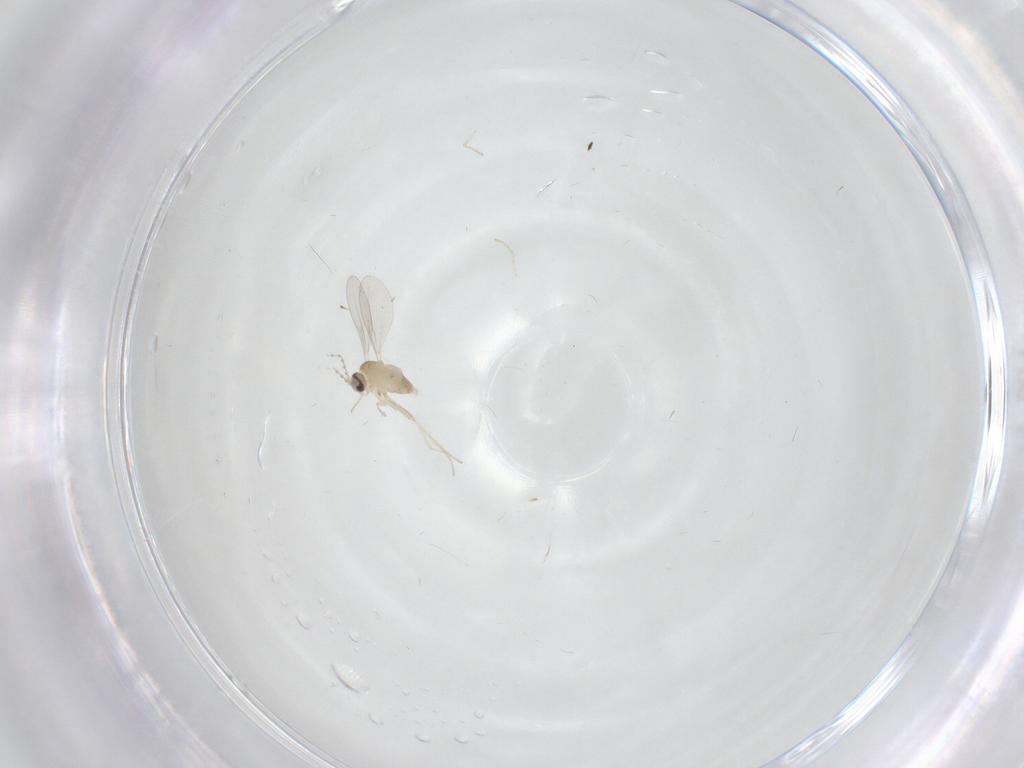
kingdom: Animalia
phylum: Arthropoda
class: Insecta
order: Diptera
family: Cecidomyiidae
